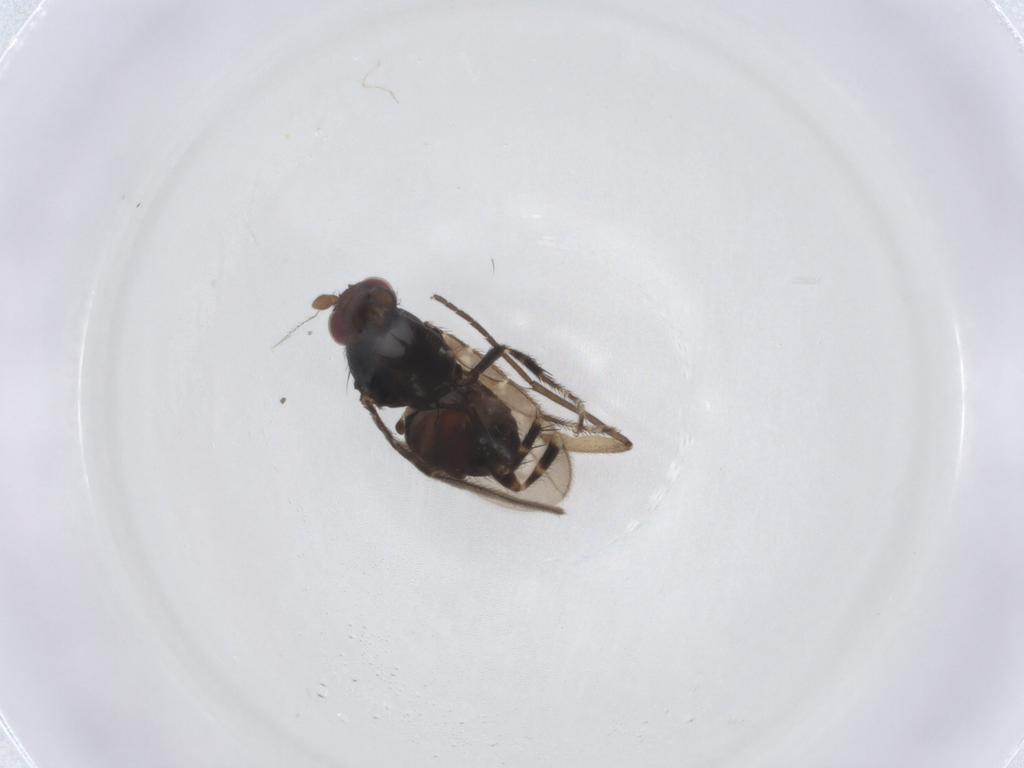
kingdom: Animalia
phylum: Arthropoda
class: Insecta
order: Diptera
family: Sphaeroceridae
